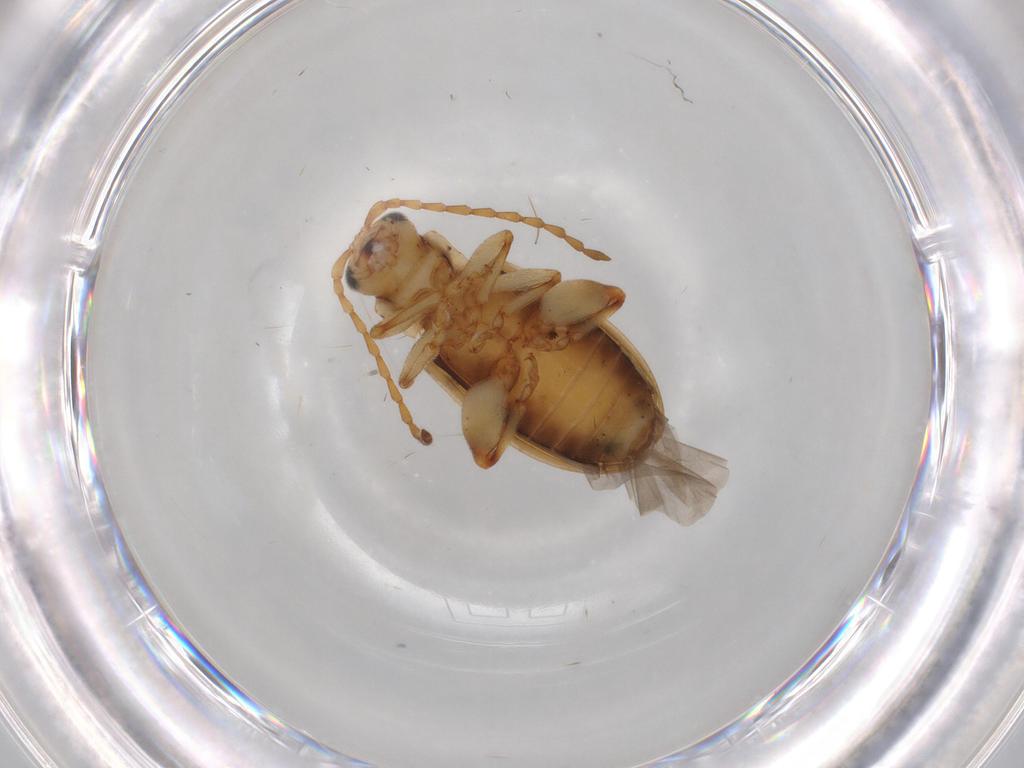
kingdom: Animalia
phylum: Arthropoda
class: Insecta
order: Coleoptera
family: Chrysomelidae
